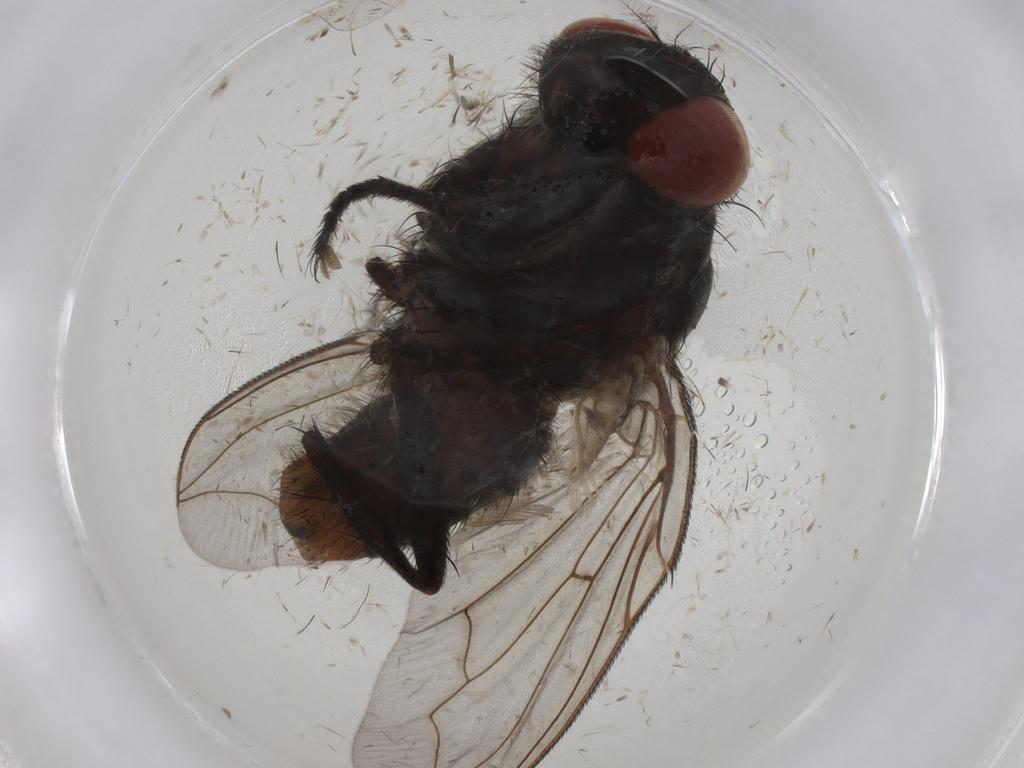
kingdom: Animalia
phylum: Arthropoda
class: Insecta
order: Diptera
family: Sarcophagidae
